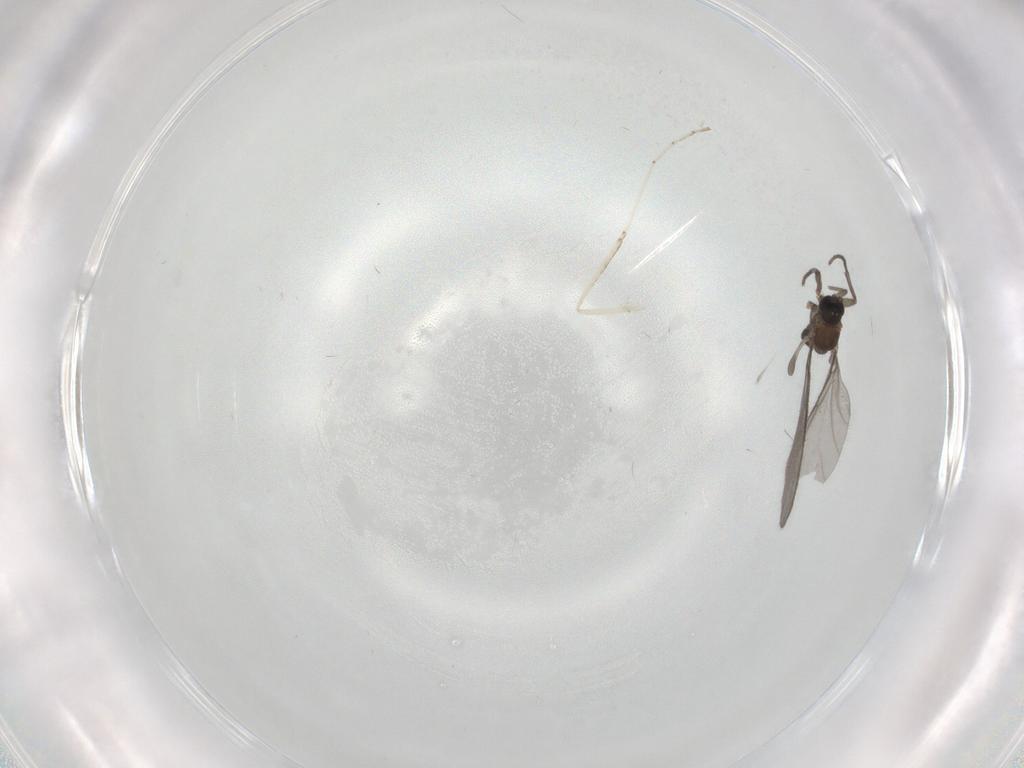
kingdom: Animalia
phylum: Arthropoda
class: Insecta
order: Diptera
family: Sciaridae
